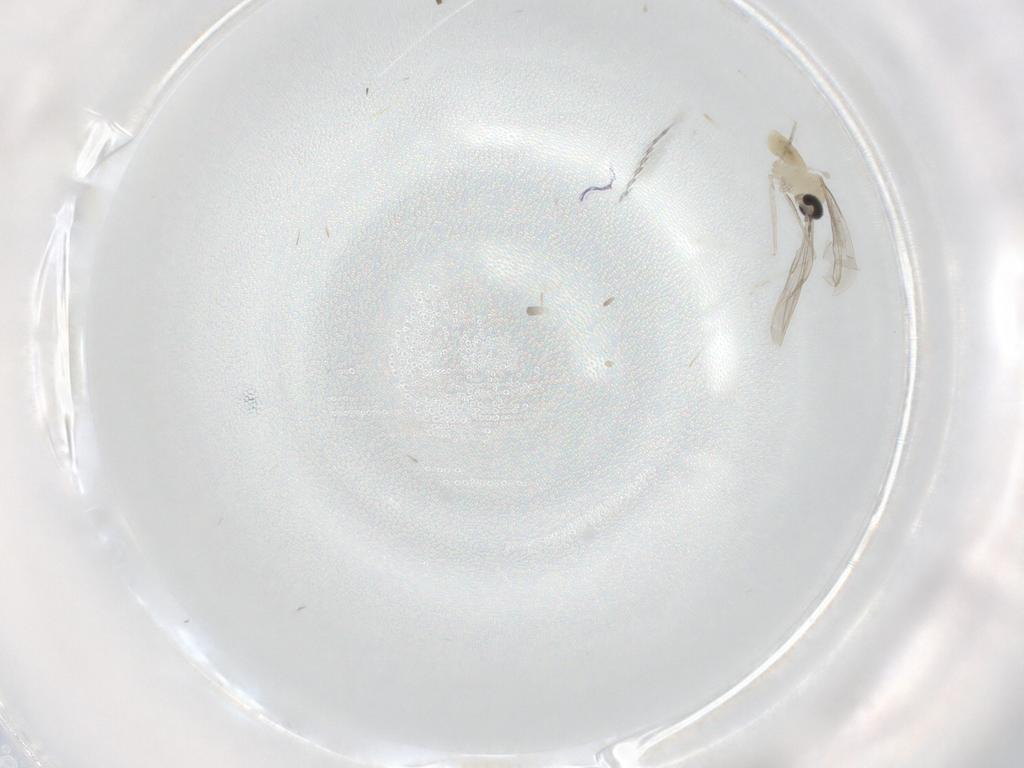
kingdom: Animalia
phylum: Arthropoda
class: Insecta
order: Diptera
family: Cecidomyiidae
